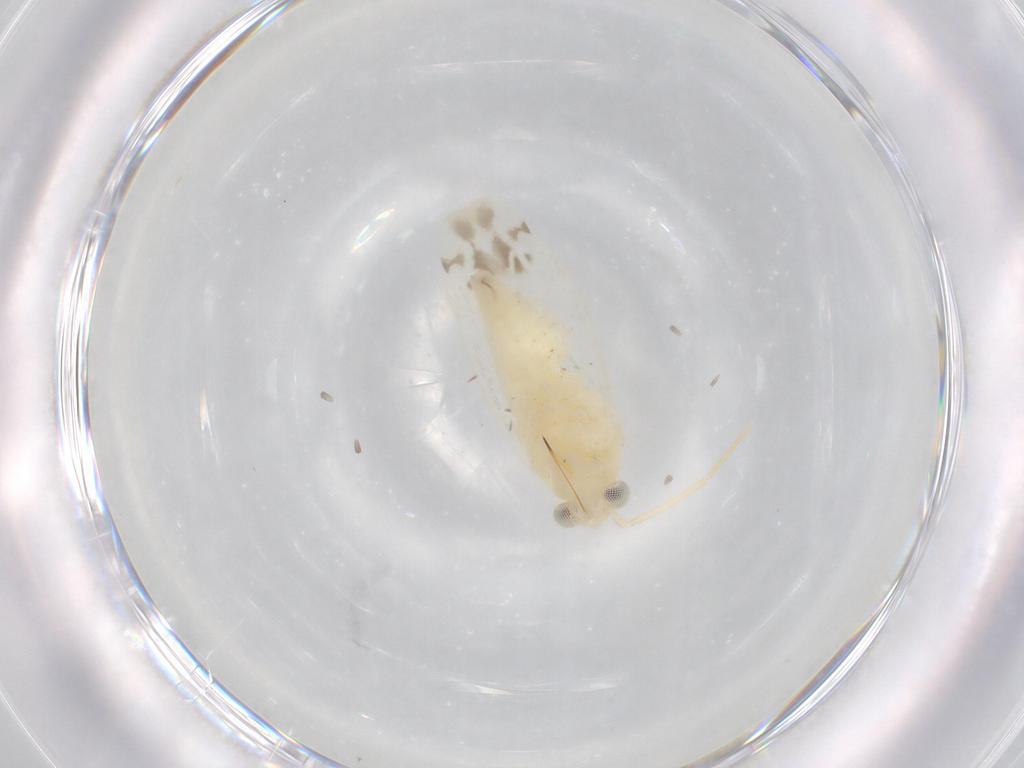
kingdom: Animalia
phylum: Arthropoda
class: Insecta
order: Hemiptera
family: Miridae
